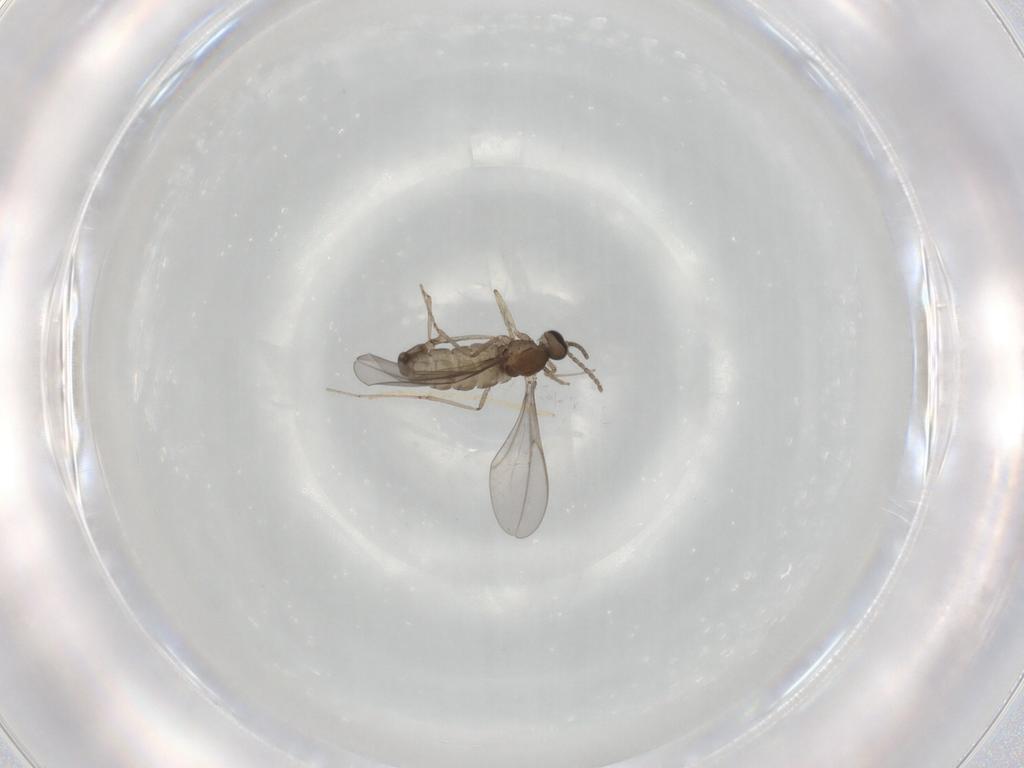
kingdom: Animalia
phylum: Arthropoda
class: Insecta
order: Diptera
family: Cecidomyiidae
